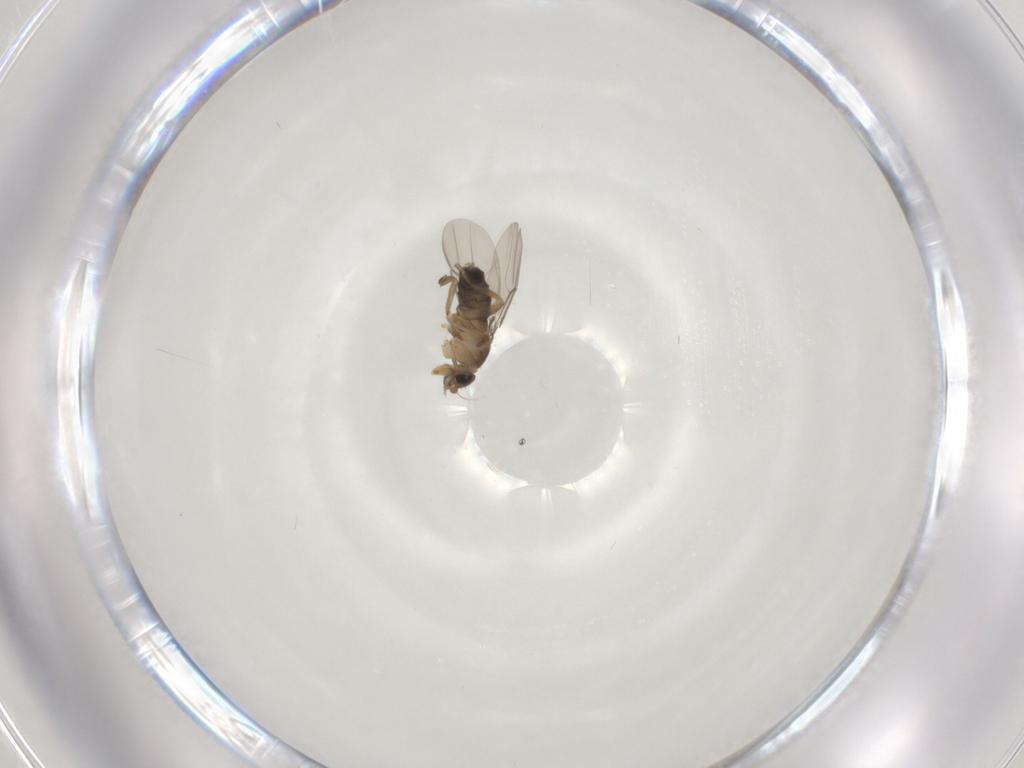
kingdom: Animalia
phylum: Arthropoda
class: Insecta
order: Diptera
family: Phoridae
